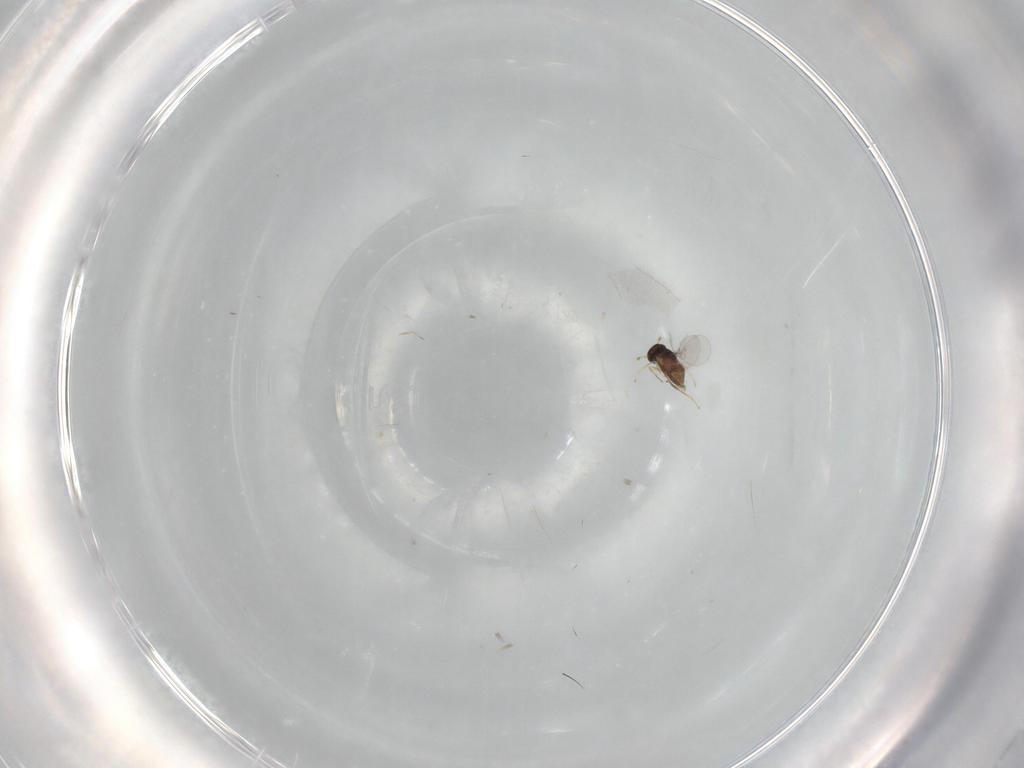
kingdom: Animalia
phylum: Arthropoda
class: Insecta
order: Hymenoptera
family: Encyrtidae
